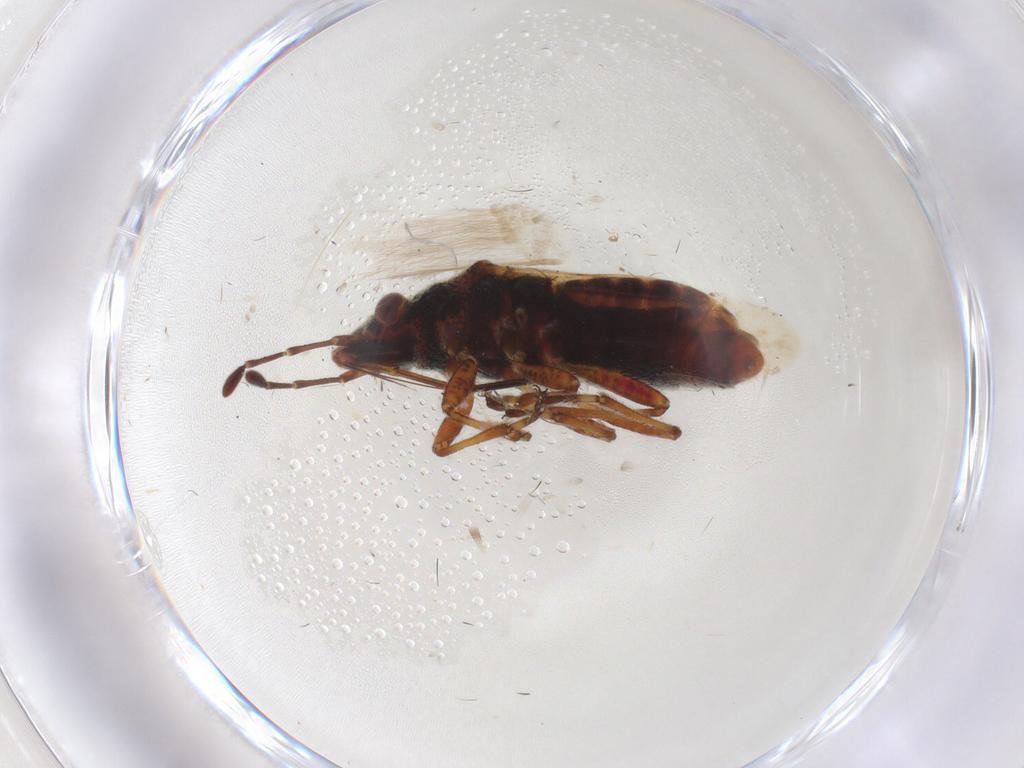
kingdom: Animalia
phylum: Arthropoda
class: Insecta
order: Hemiptera
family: Lygaeidae
